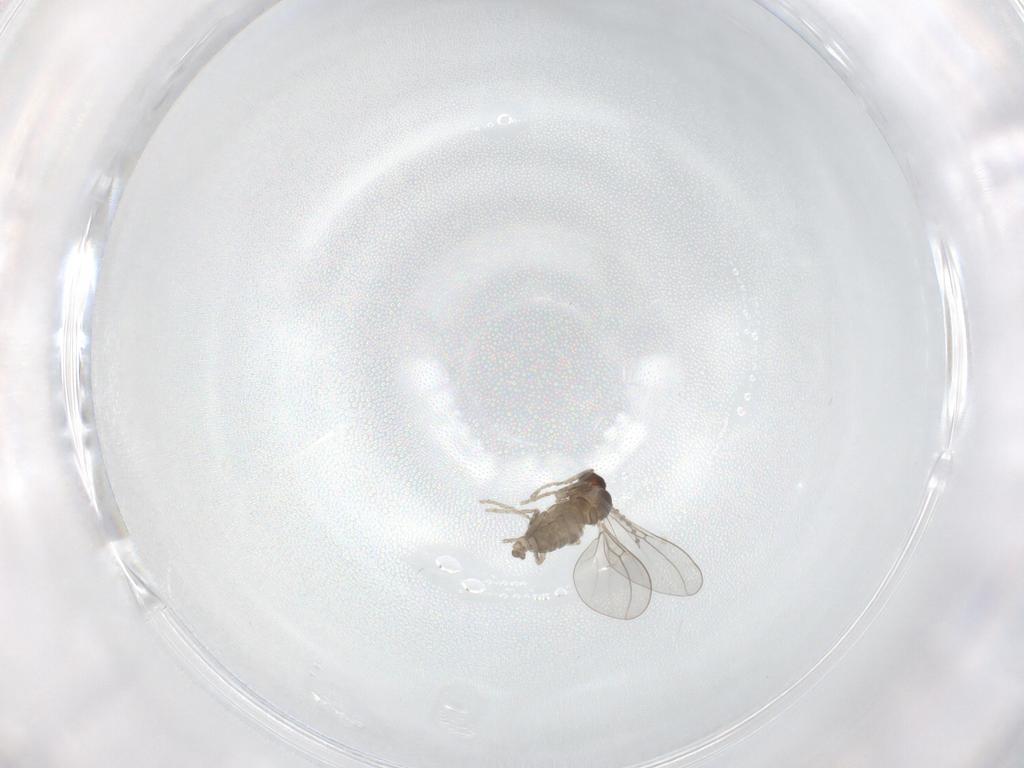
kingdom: Animalia
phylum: Arthropoda
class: Insecta
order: Diptera
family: Cecidomyiidae
